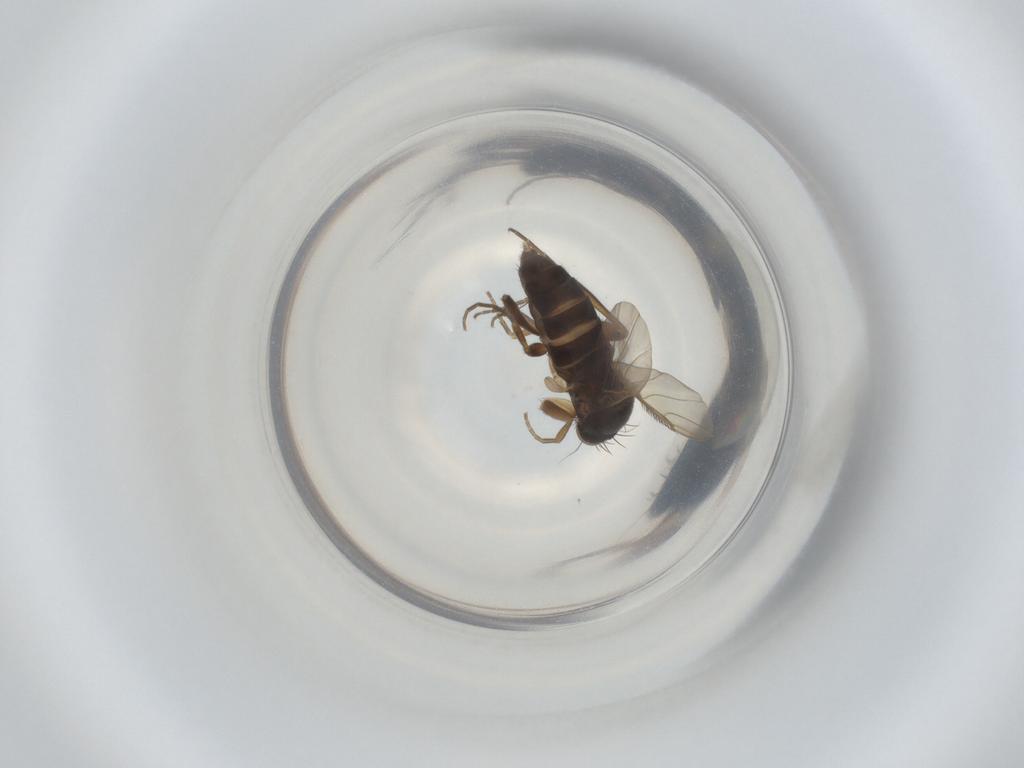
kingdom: Animalia
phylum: Arthropoda
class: Insecta
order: Diptera
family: Phoridae
